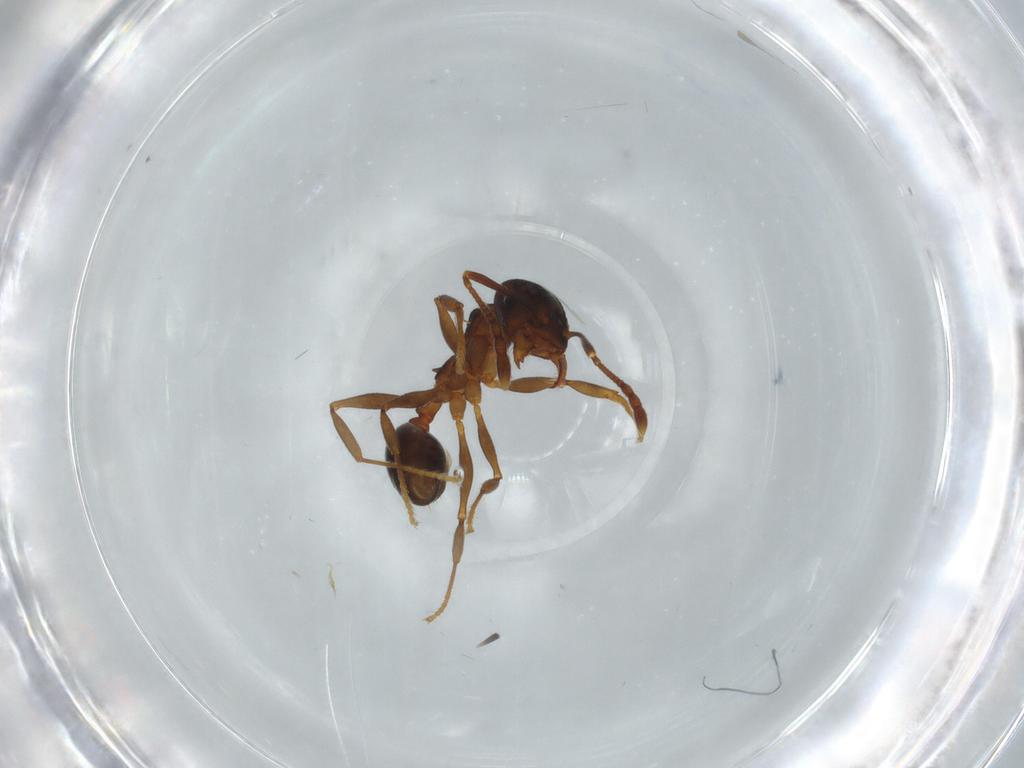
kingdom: Animalia
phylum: Arthropoda
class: Insecta
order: Hymenoptera
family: Formicidae
